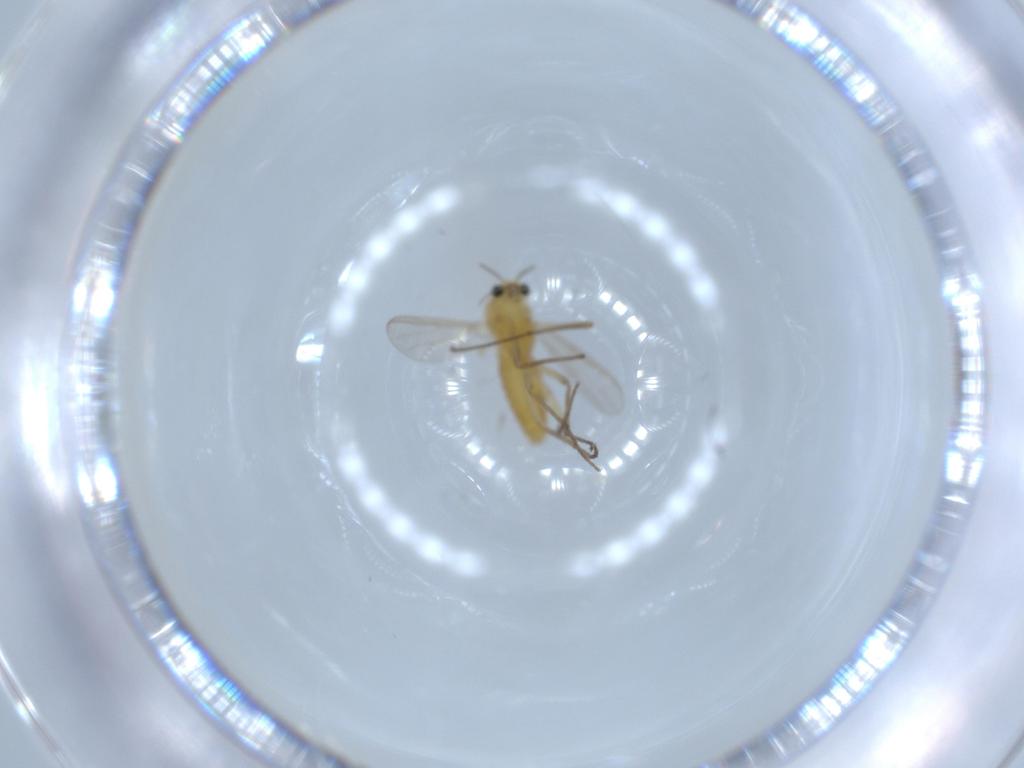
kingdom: Animalia
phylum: Arthropoda
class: Insecta
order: Diptera
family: Chironomidae
